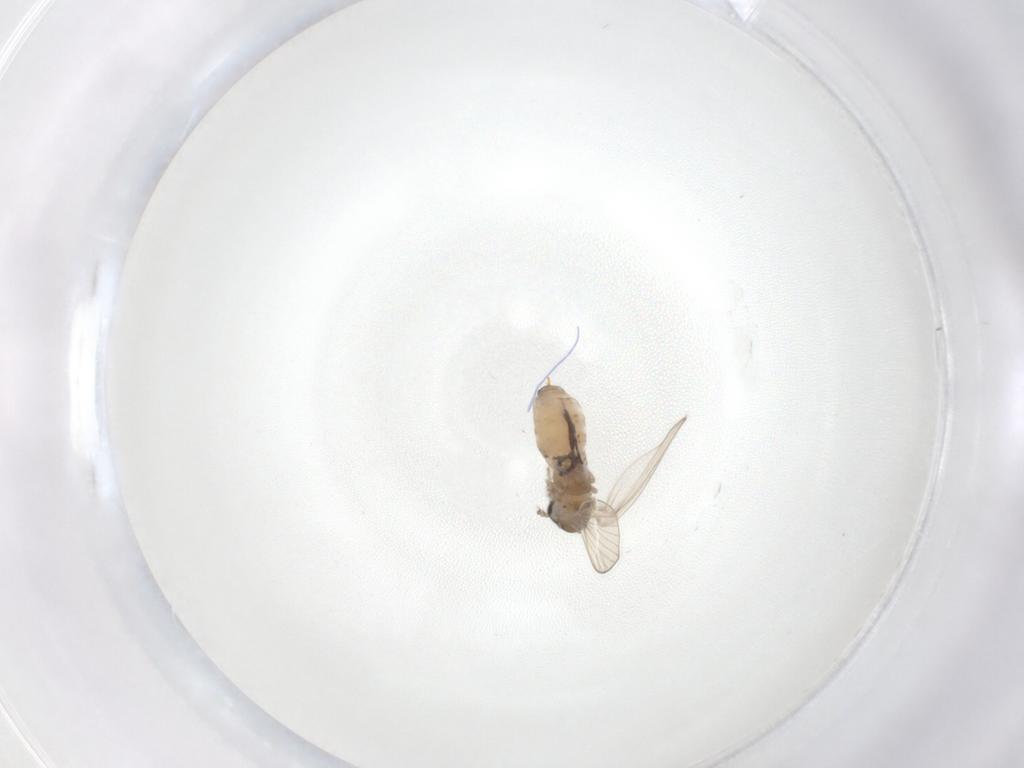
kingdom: Animalia
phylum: Arthropoda
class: Insecta
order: Diptera
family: Psychodidae
